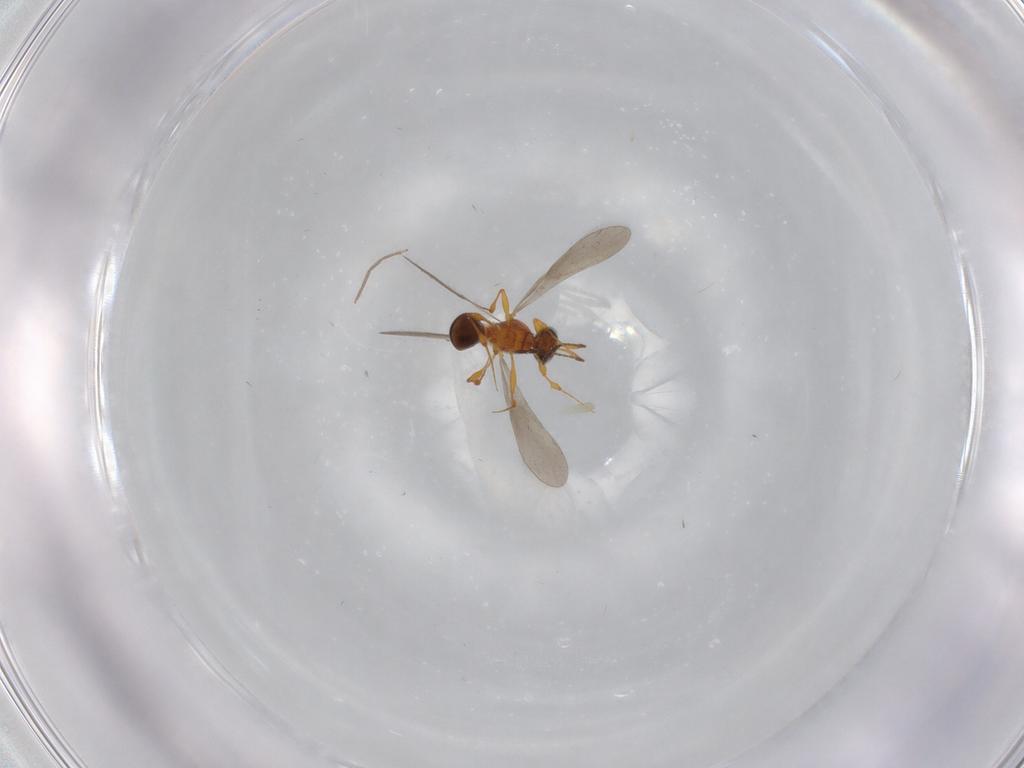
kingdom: Animalia
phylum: Arthropoda
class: Insecta
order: Hymenoptera
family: Platygastridae
